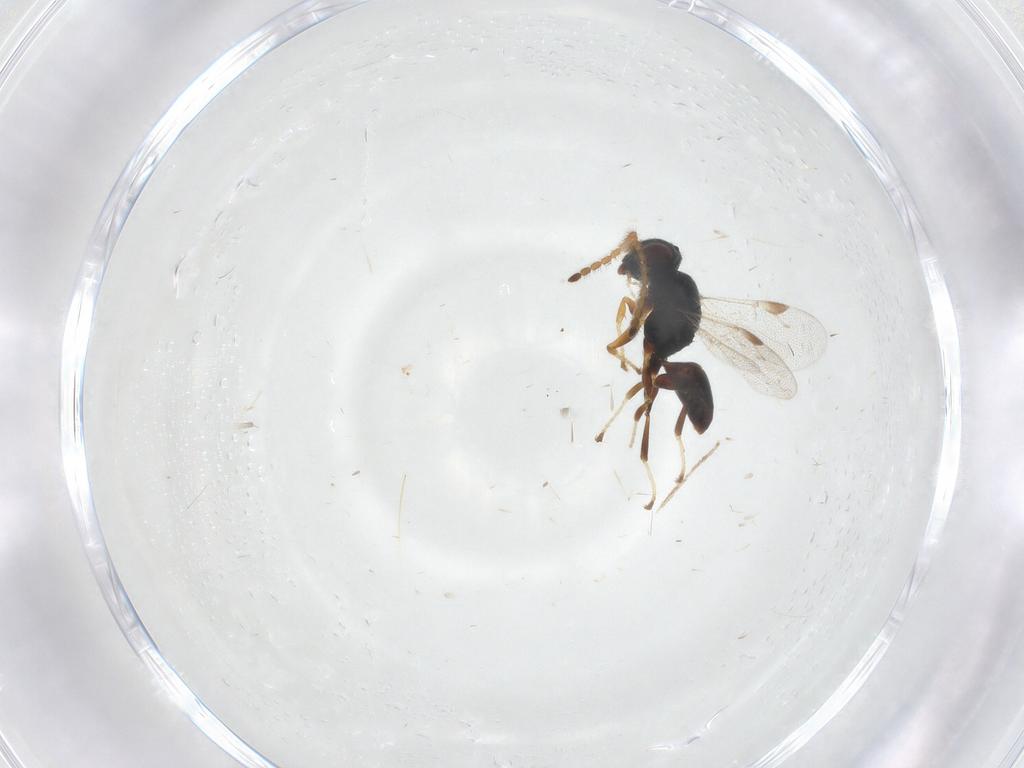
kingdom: Animalia
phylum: Arthropoda
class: Insecta
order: Hymenoptera
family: Dryinidae
